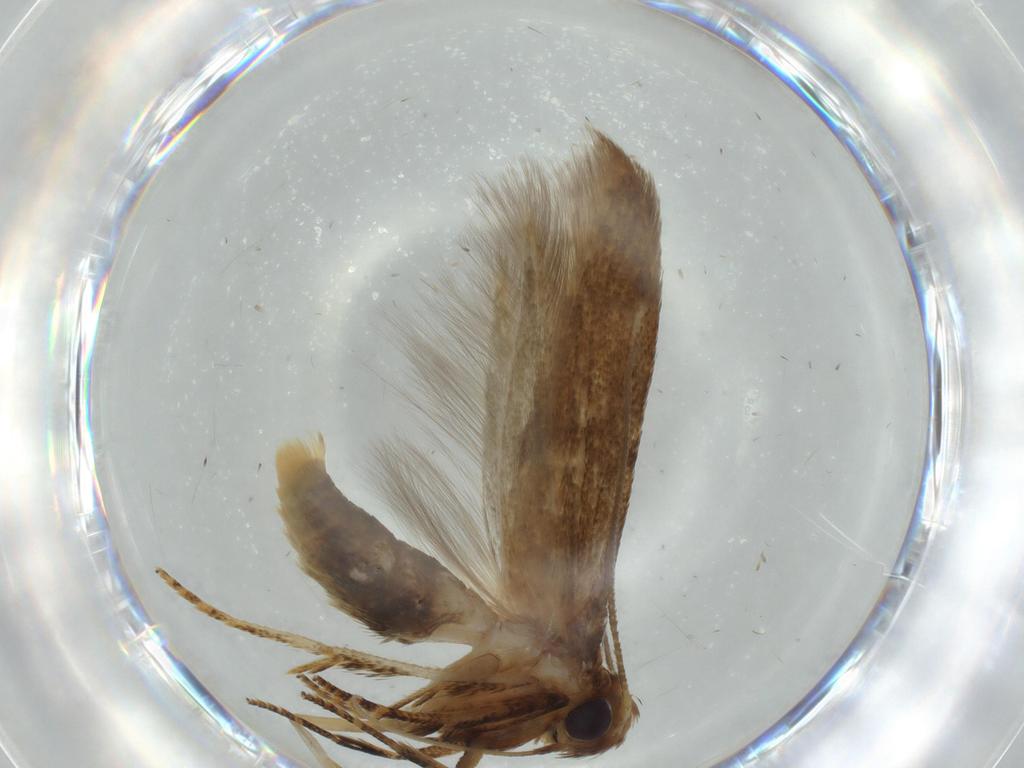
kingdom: Animalia
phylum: Arthropoda
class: Insecta
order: Lepidoptera
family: Blastobasidae
